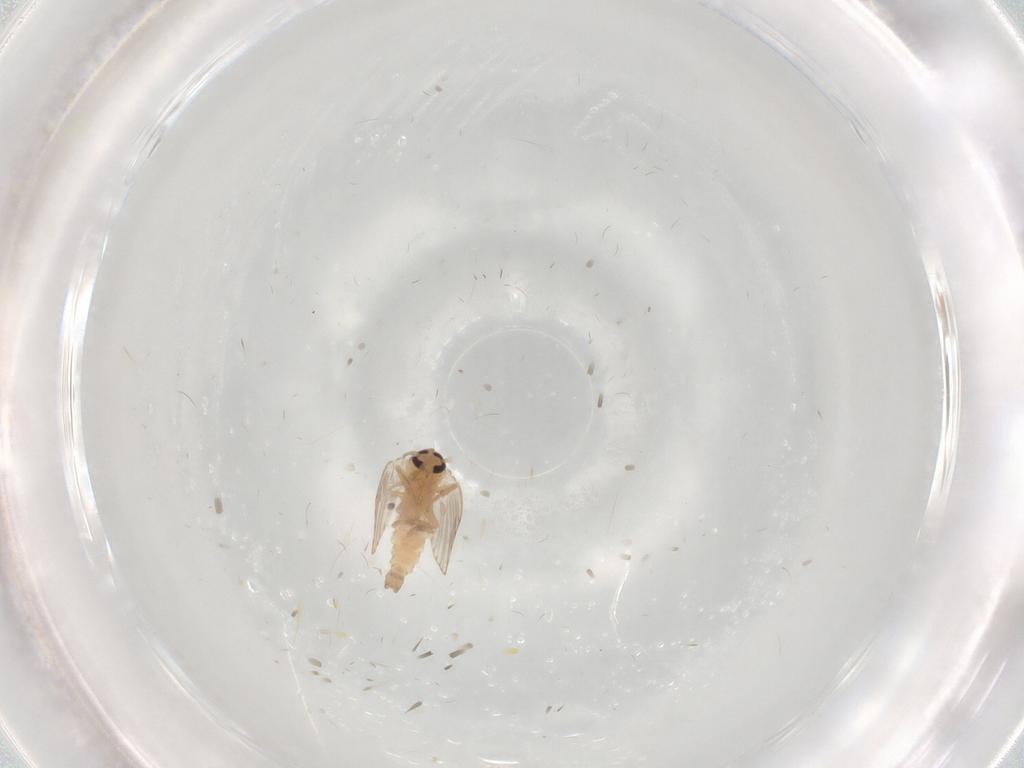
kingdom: Animalia
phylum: Arthropoda
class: Insecta
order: Diptera
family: Psychodidae
